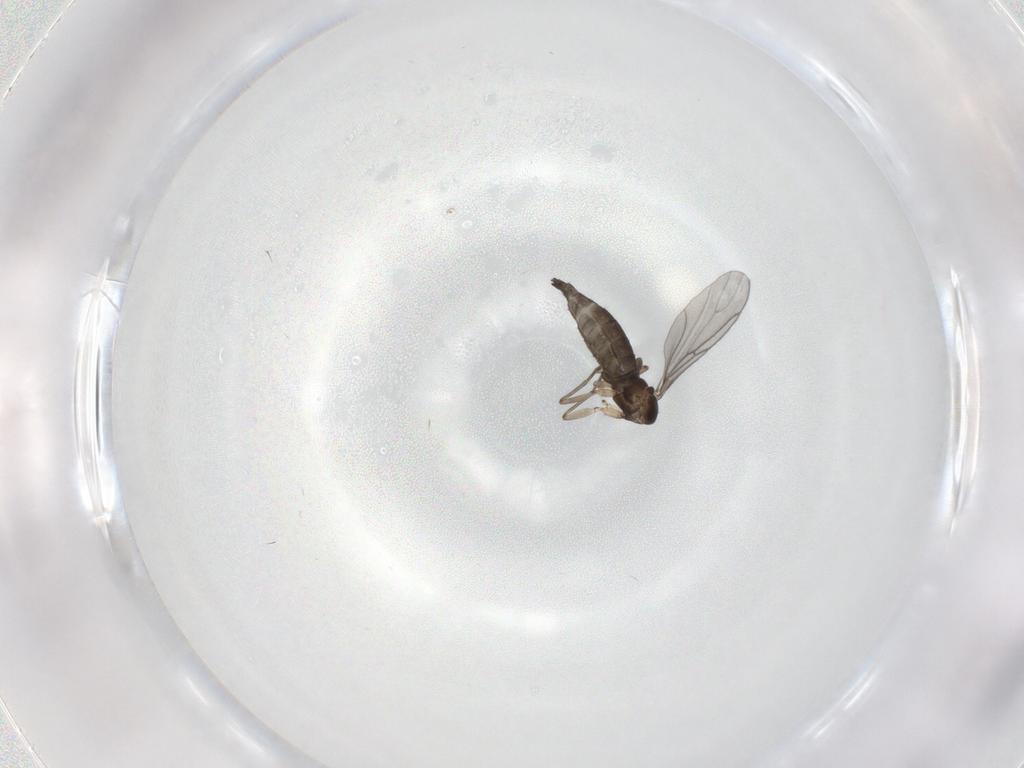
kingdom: Animalia
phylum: Arthropoda
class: Insecta
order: Diptera
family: Sciaridae
